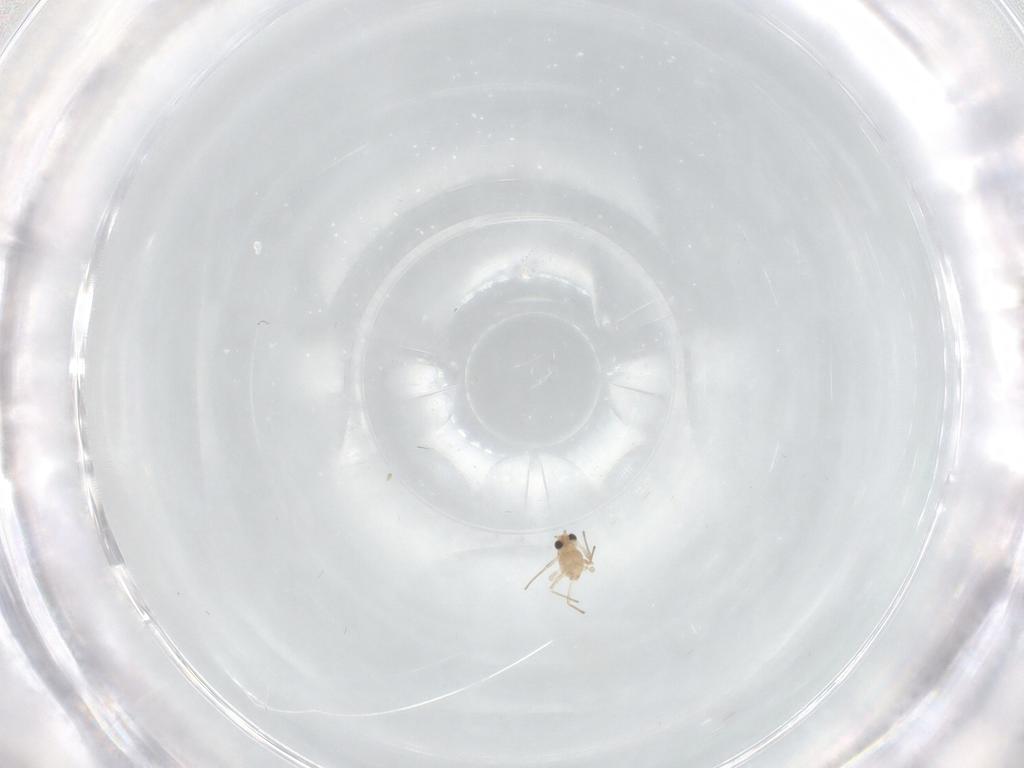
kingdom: Animalia
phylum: Arthropoda
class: Insecta
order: Diptera
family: Chironomidae
